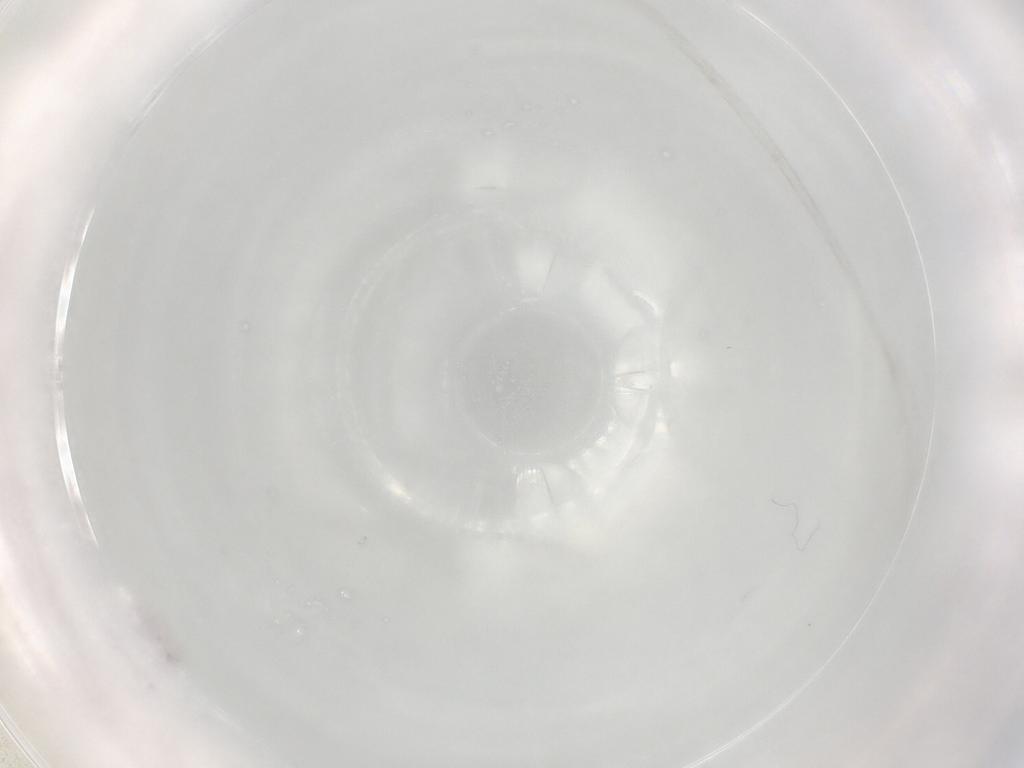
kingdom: Animalia
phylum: Arthropoda
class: Collembola
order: Entomobryomorpha
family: Isotomidae
